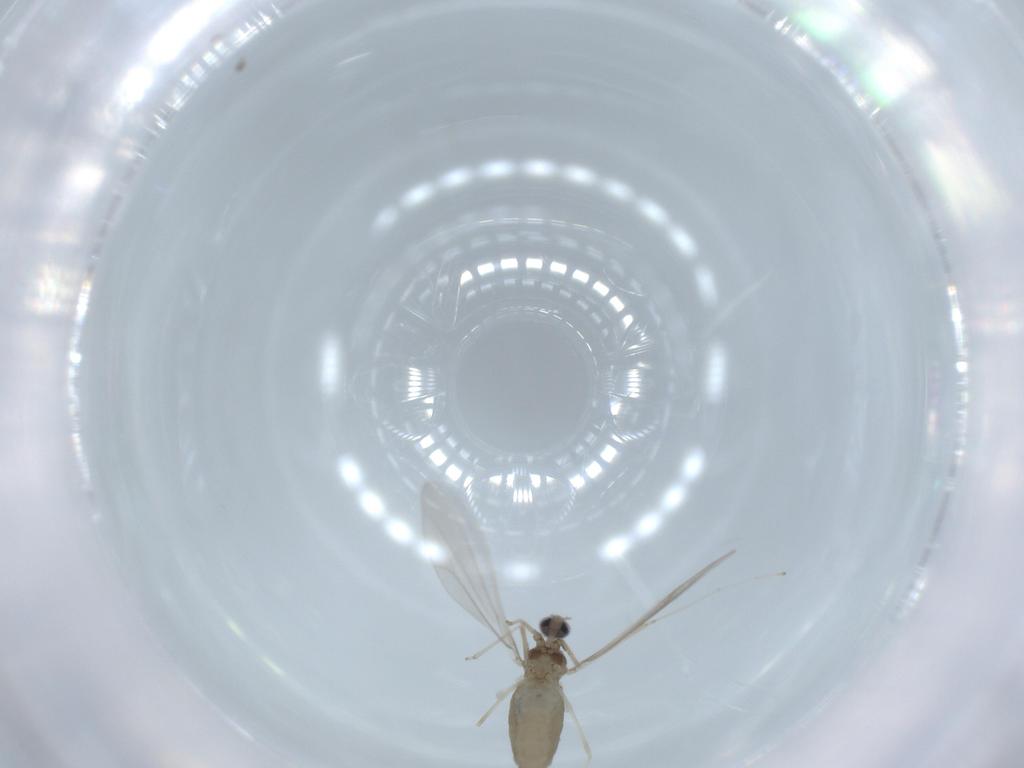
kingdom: Animalia
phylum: Arthropoda
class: Insecta
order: Diptera
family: Cecidomyiidae
